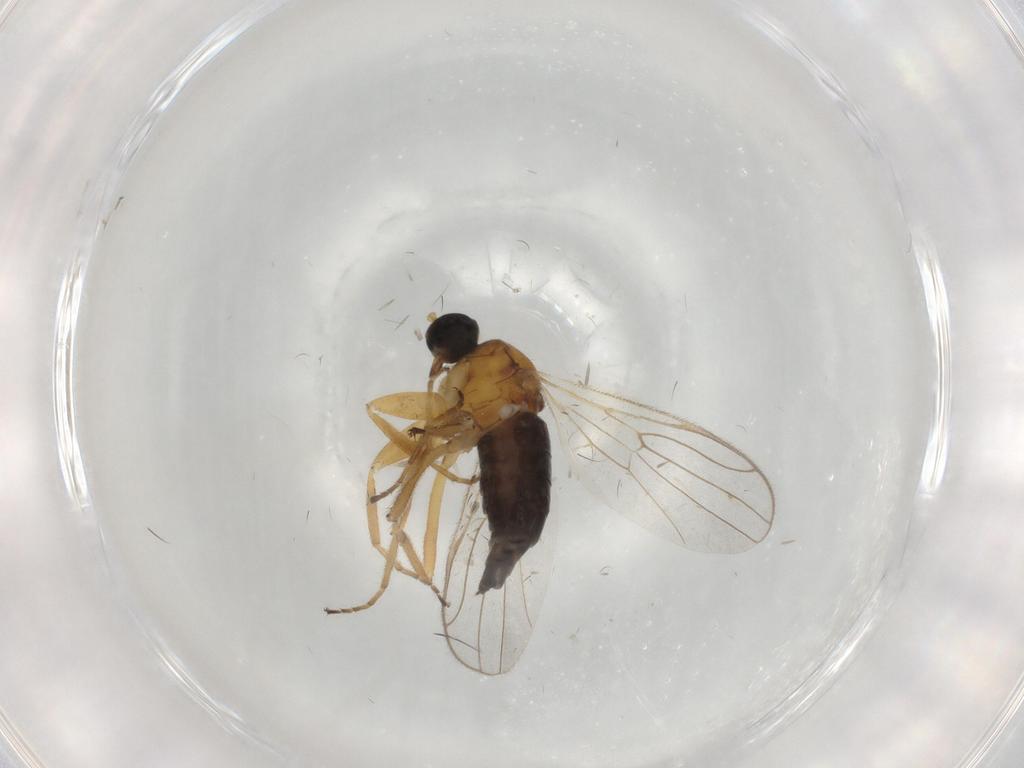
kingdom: Animalia
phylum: Arthropoda
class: Insecta
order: Diptera
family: Hybotidae
